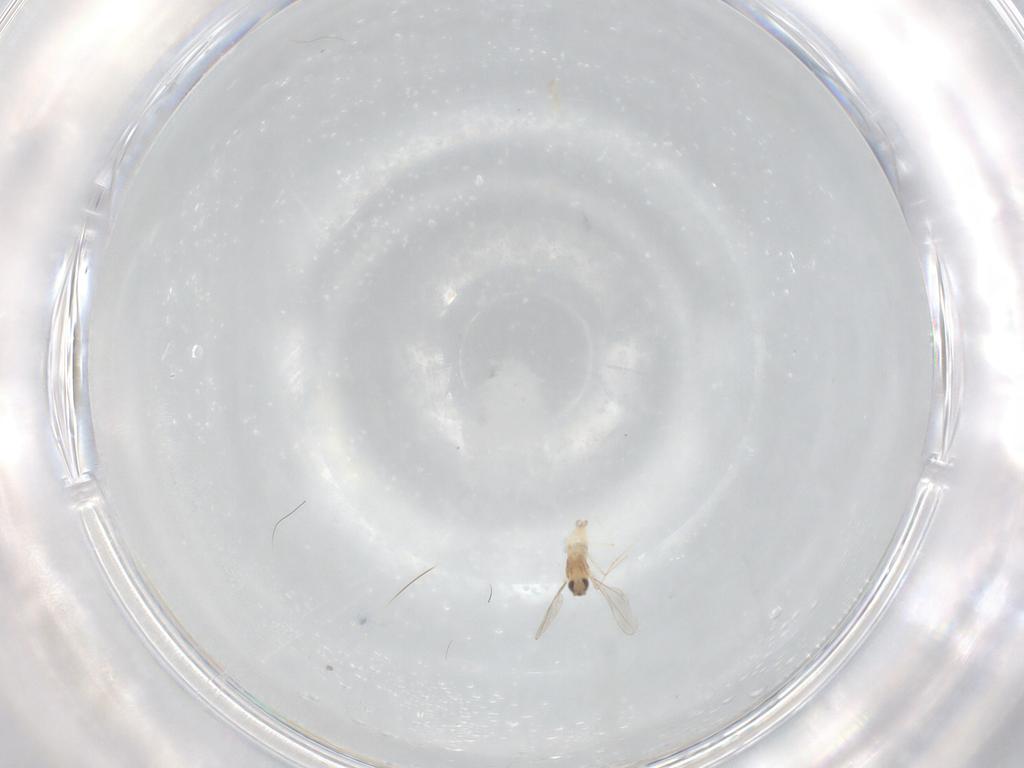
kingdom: Animalia
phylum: Arthropoda
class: Insecta
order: Diptera
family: Cecidomyiidae
